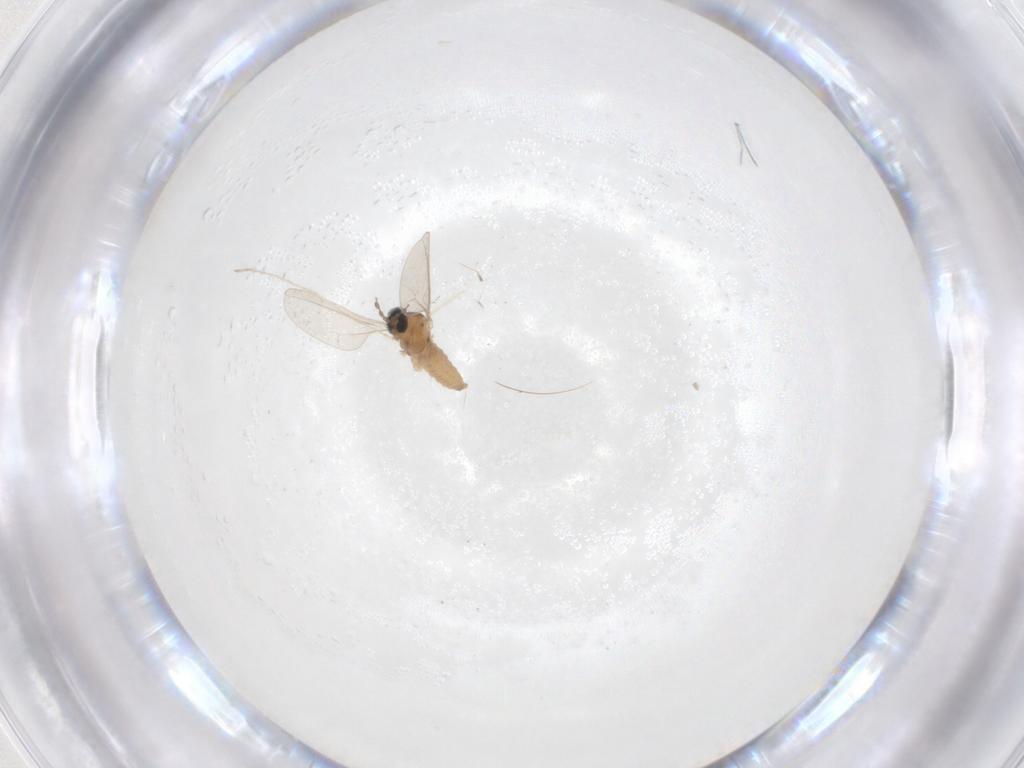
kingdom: Animalia
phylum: Arthropoda
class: Insecta
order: Diptera
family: Cecidomyiidae
